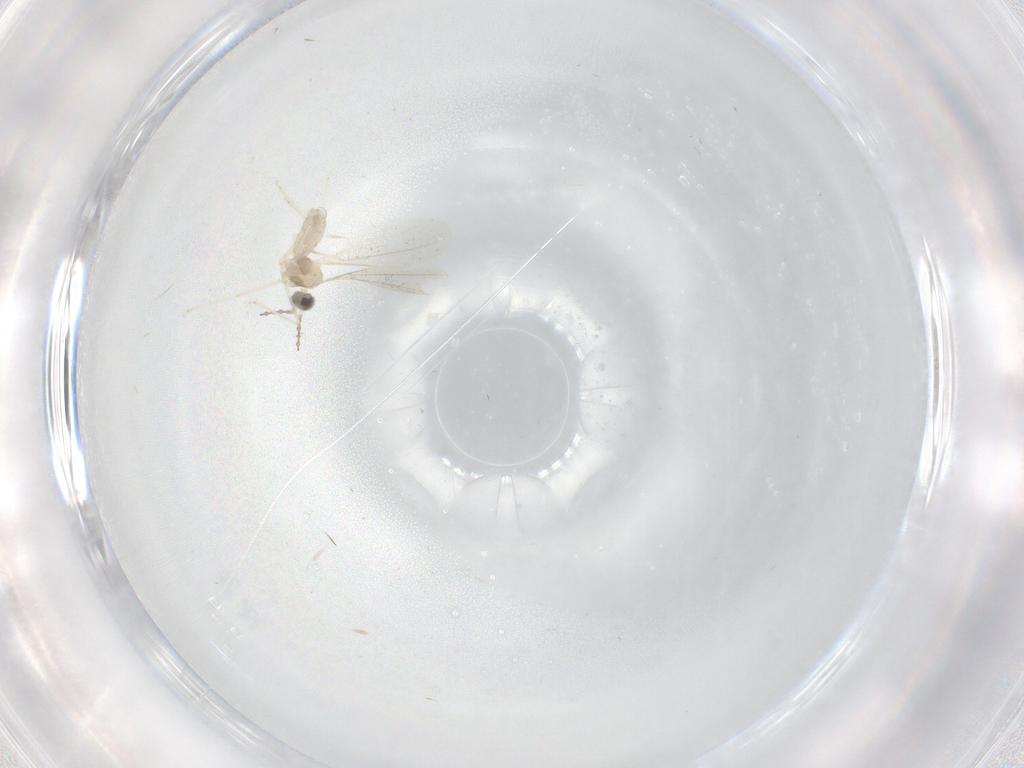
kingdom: Animalia
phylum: Arthropoda
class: Insecta
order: Diptera
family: Cecidomyiidae
